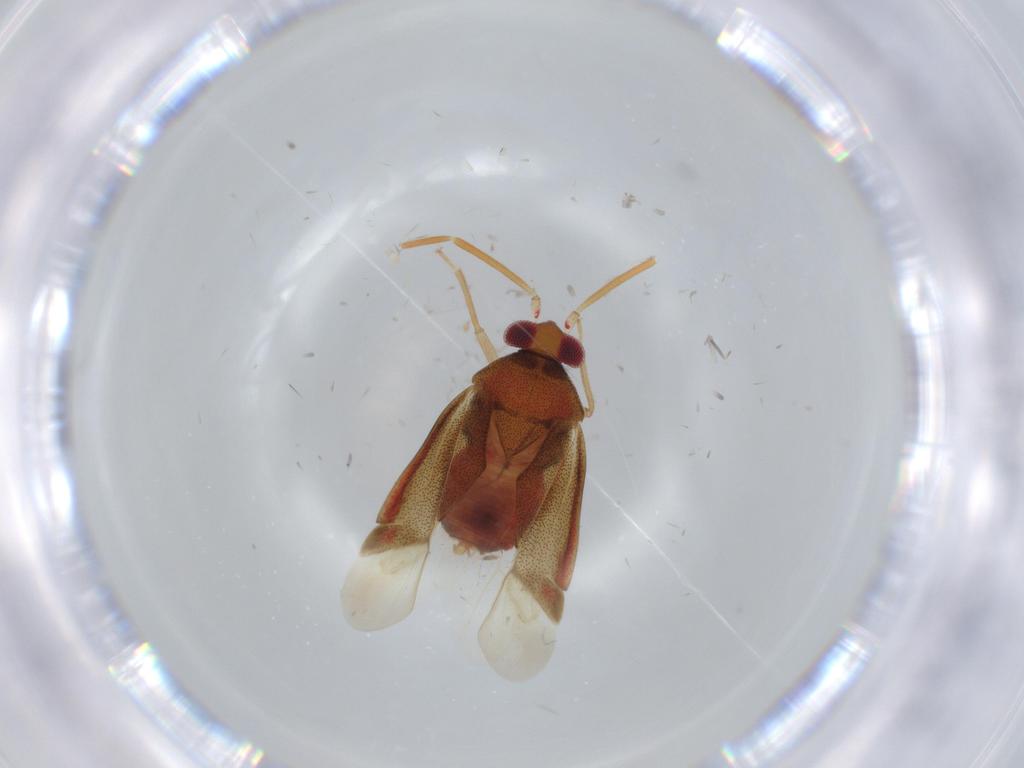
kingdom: Animalia
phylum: Arthropoda
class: Insecta
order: Hemiptera
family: Miridae
